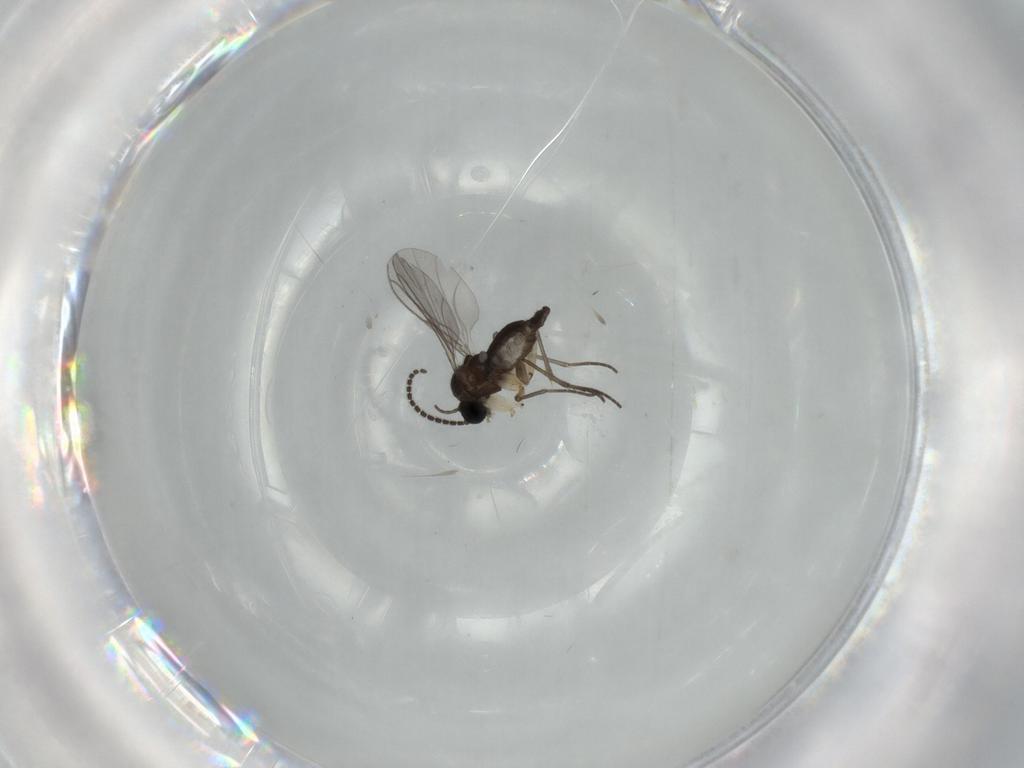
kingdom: Animalia
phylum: Arthropoda
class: Insecta
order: Diptera
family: Sciaridae
